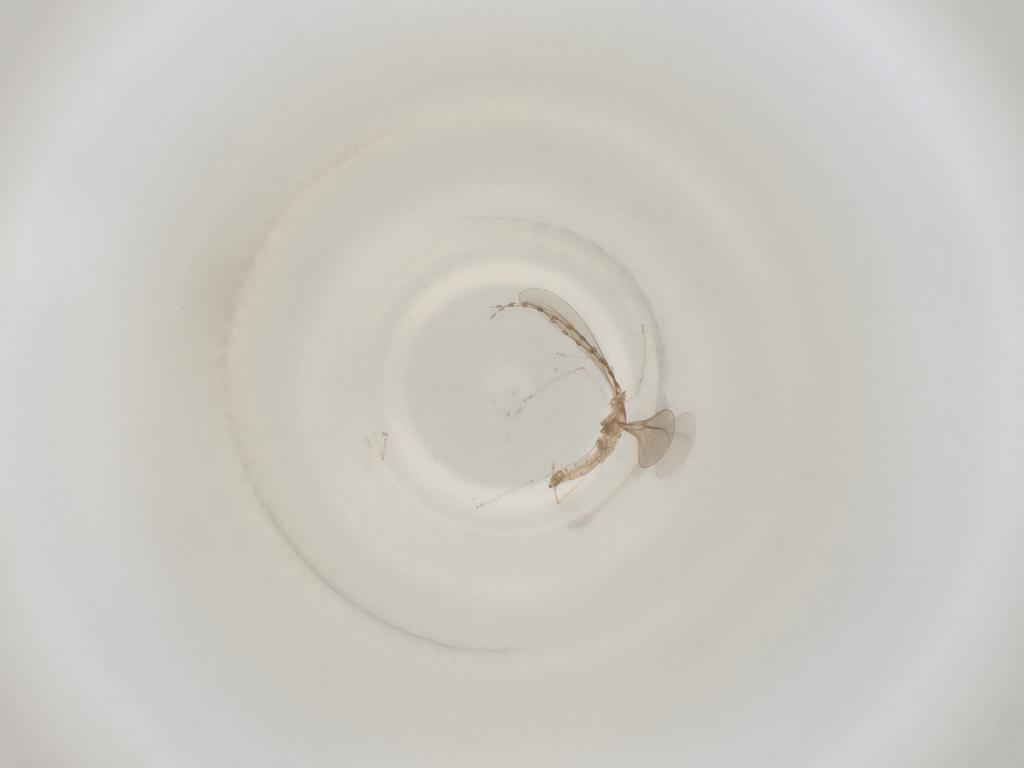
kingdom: Animalia
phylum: Arthropoda
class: Insecta
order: Diptera
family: Cecidomyiidae
